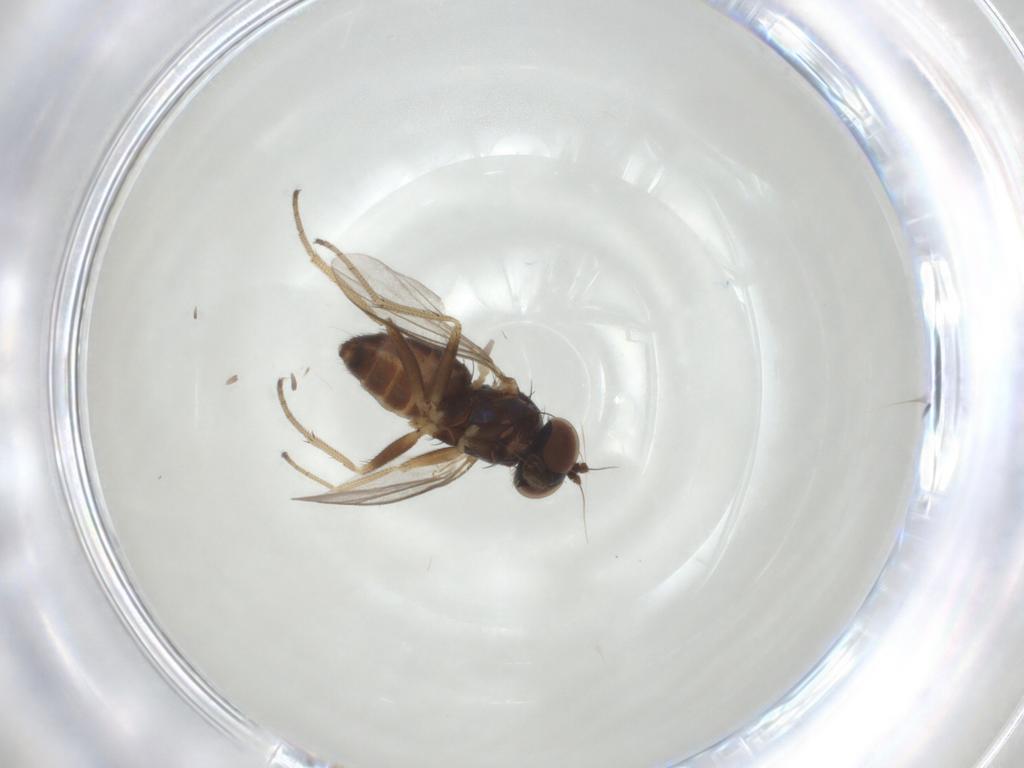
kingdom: Animalia
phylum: Arthropoda
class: Insecta
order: Diptera
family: Dolichopodidae
